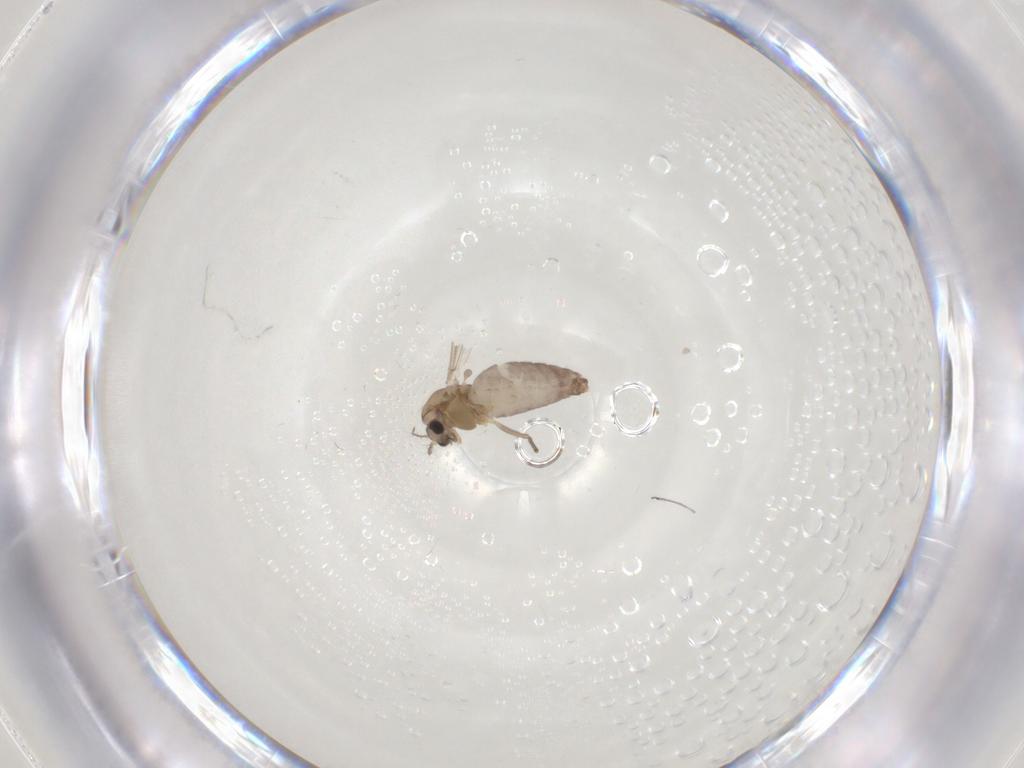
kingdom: Animalia
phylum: Arthropoda
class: Insecta
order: Diptera
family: Chironomidae
